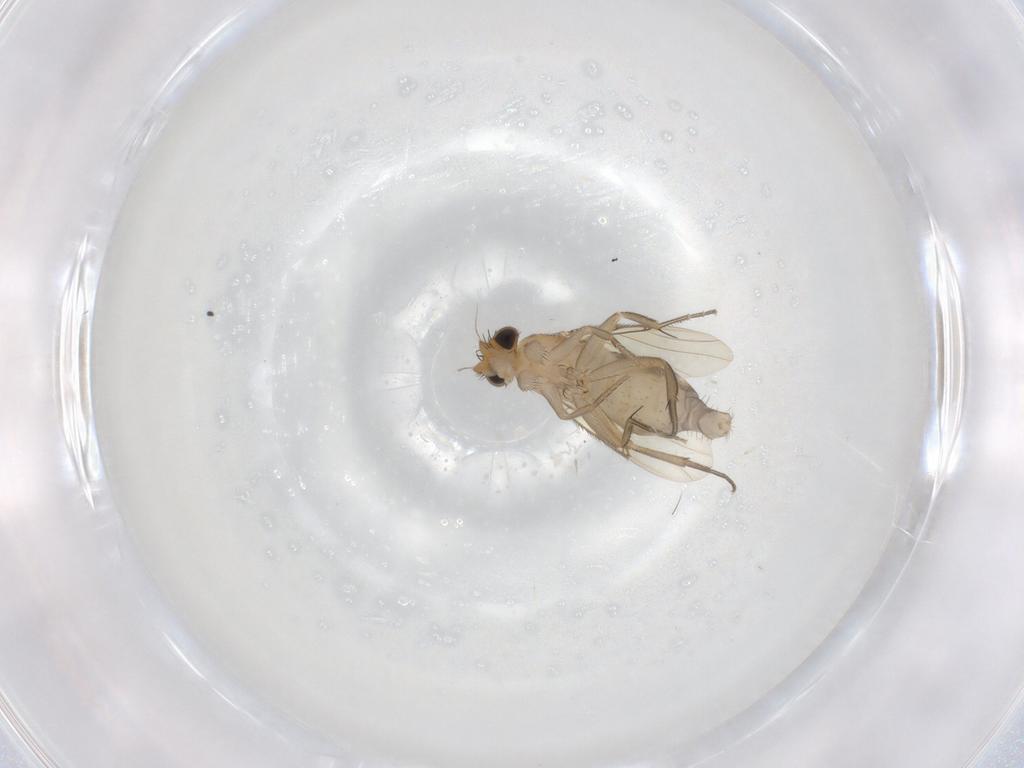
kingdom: Animalia
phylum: Arthropoda
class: Insecta
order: Diptera
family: Phoridae
